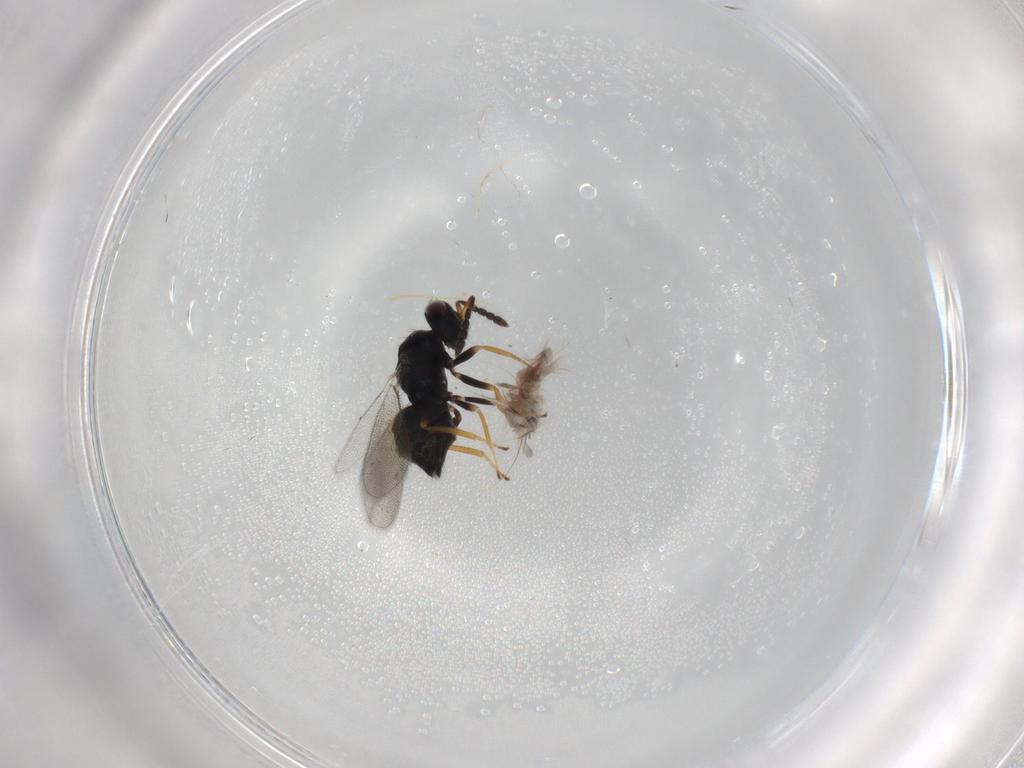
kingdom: Animalia
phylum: Arthropoda
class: Insecta
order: Hymenoptera
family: Eulophidae
